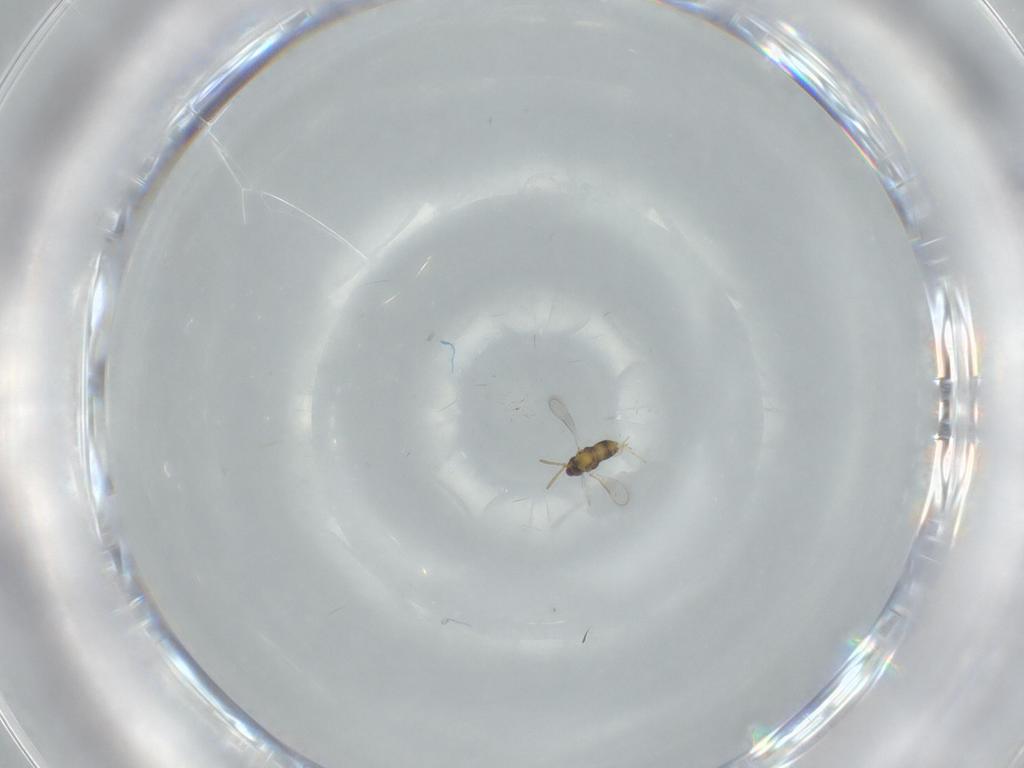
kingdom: Animalia
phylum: Arthropoda
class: Insecta
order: Hymenoptera
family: Aphelinidae
